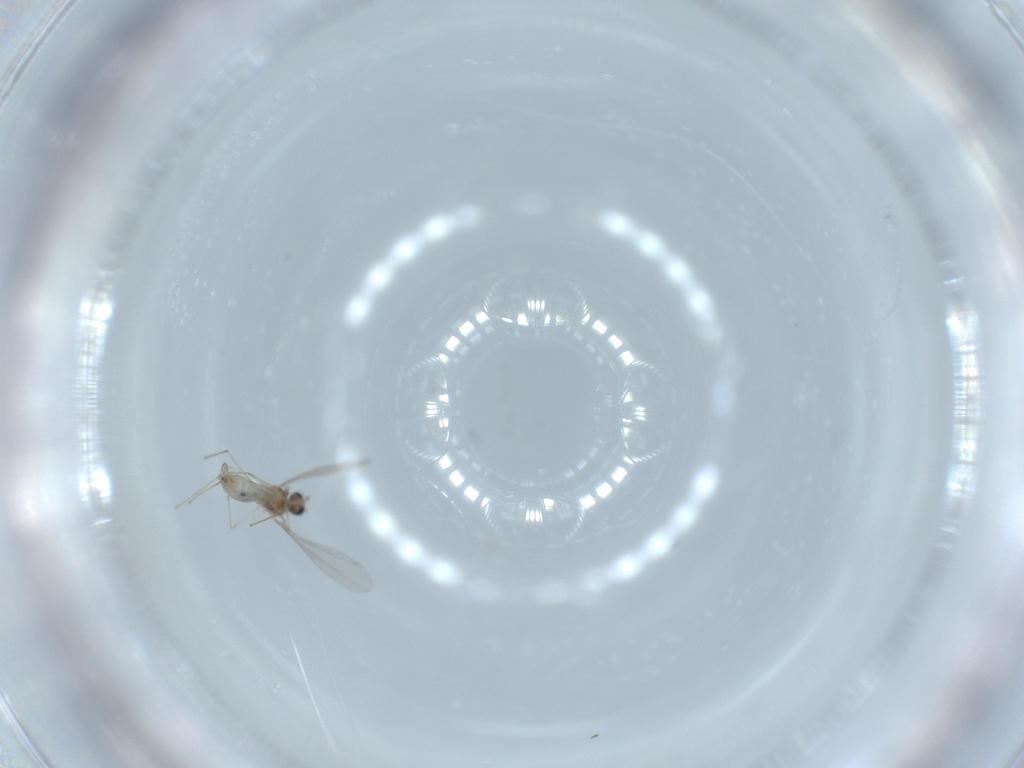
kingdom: Animalia
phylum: Arthropoda
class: Insecta
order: Diptera
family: Cecidomyiidae
